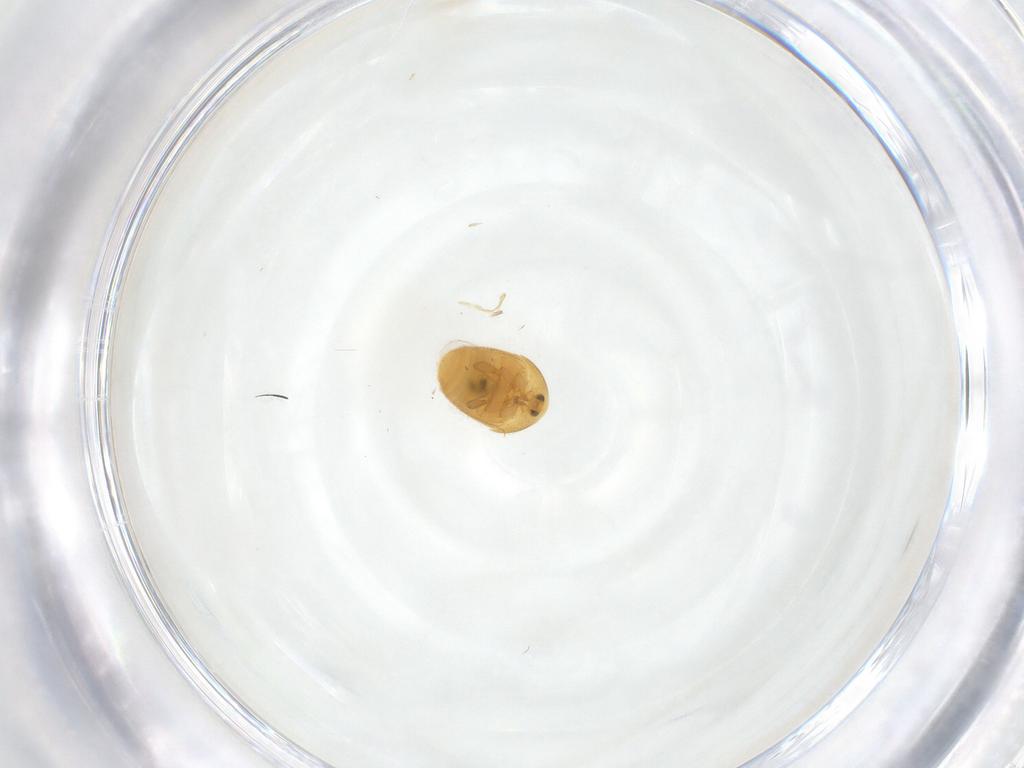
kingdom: Animalia
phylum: Arthropoda
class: Insecta
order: Coleoptera
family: Corylophidae
